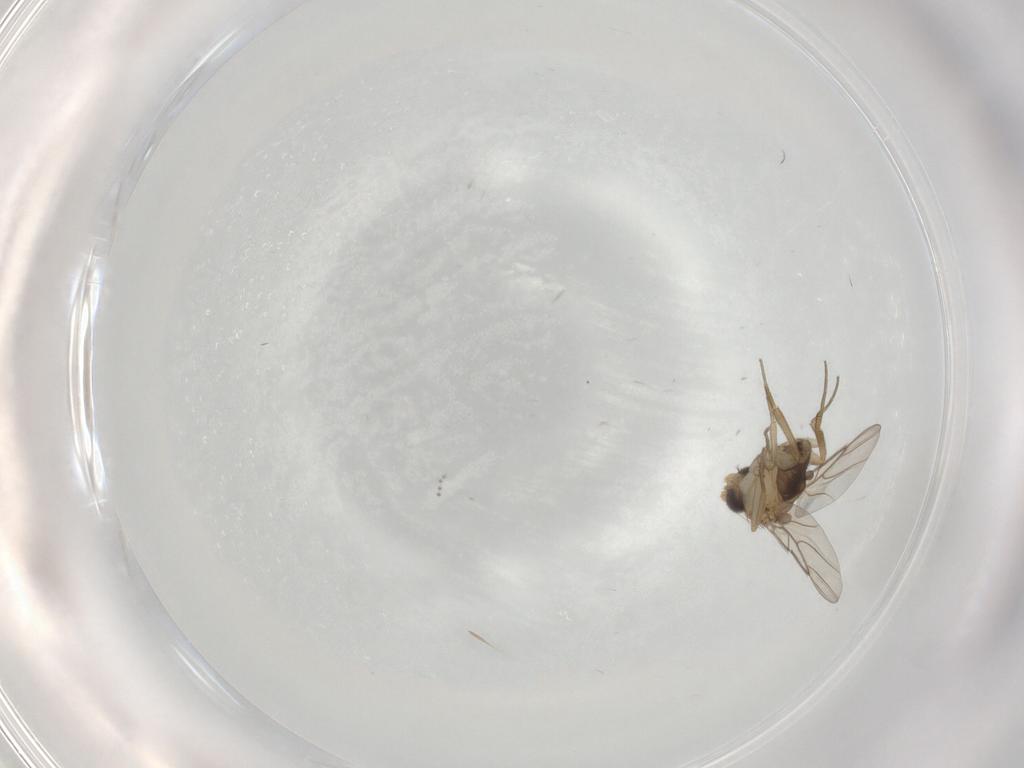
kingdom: Animalia
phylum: Arthropoda
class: Insecta
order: Diptera
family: Phoridae
